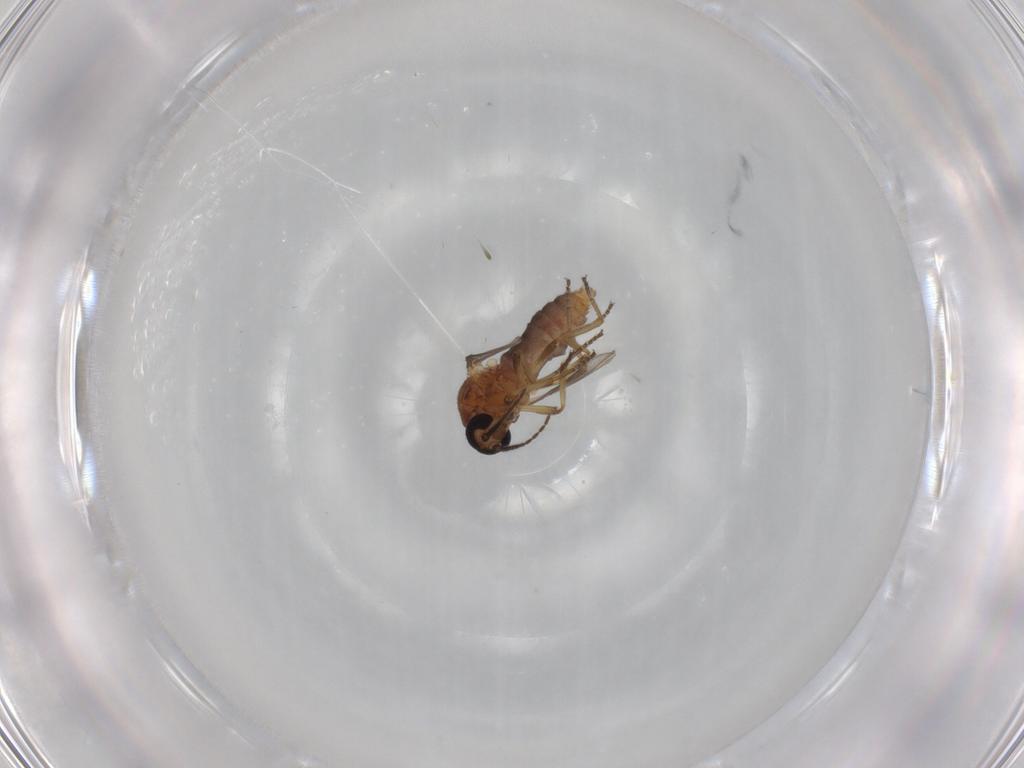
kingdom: Animalia
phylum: Arthropoda
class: Insecta
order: Diptera
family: Ceratopogonidae
